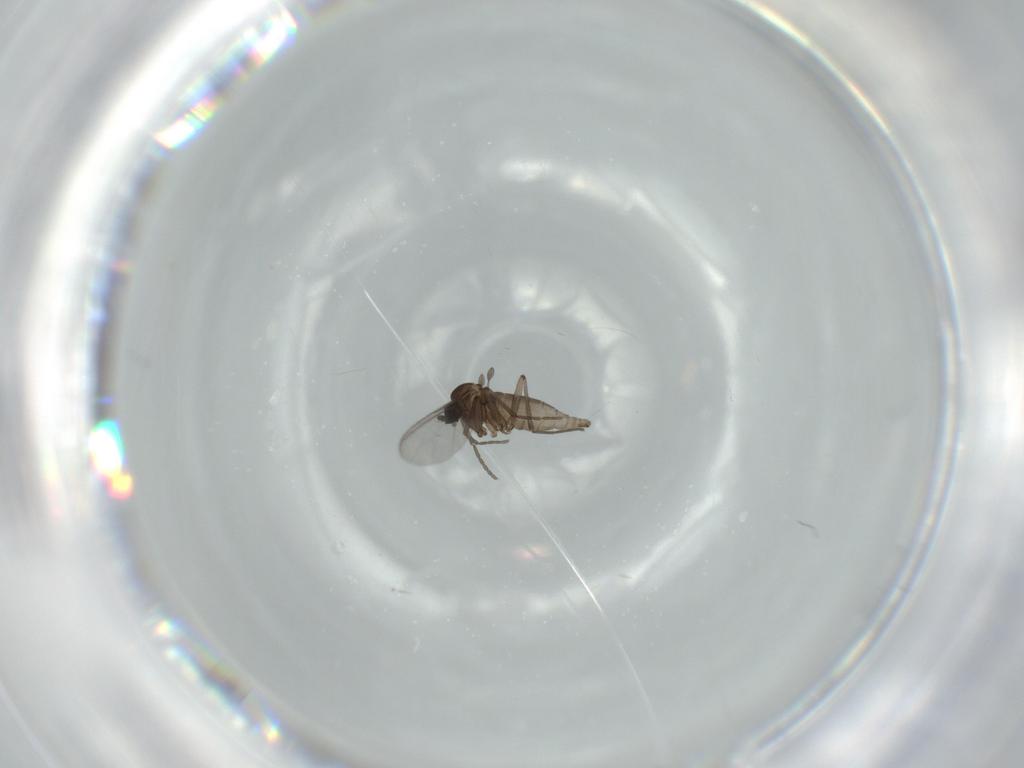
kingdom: Animalia
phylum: Arthropoda
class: Insecta
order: Diptera
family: Sciaridae
